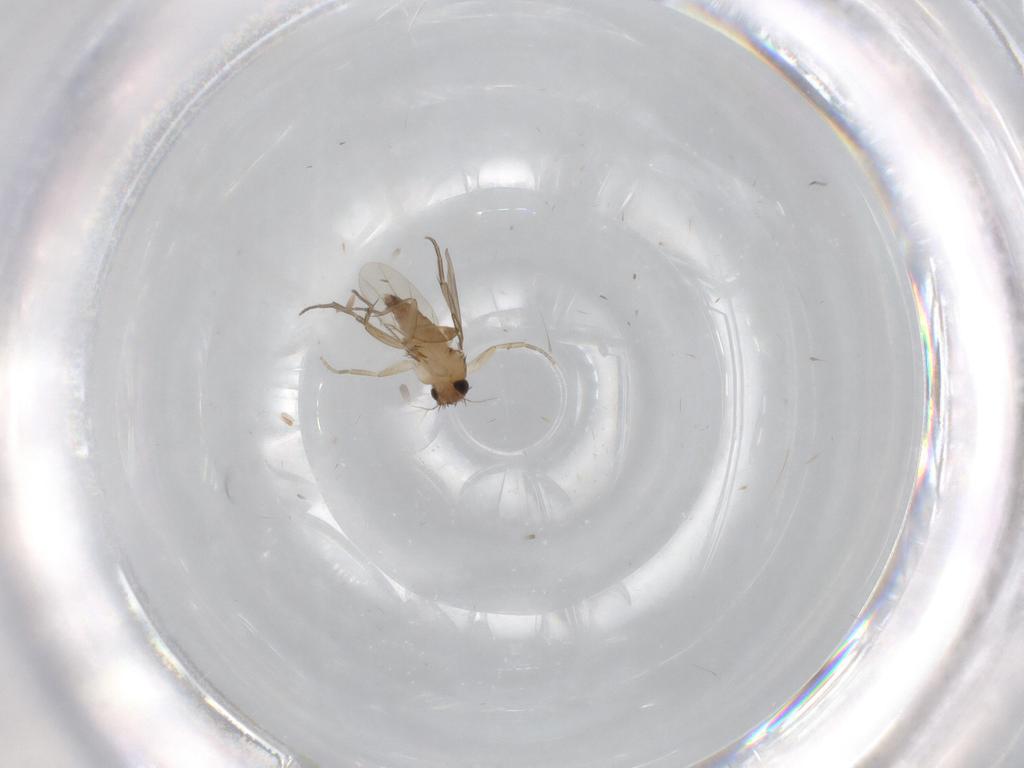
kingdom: Animalia
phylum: Arthropoda
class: Insecta
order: Diptera
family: Phoridae
